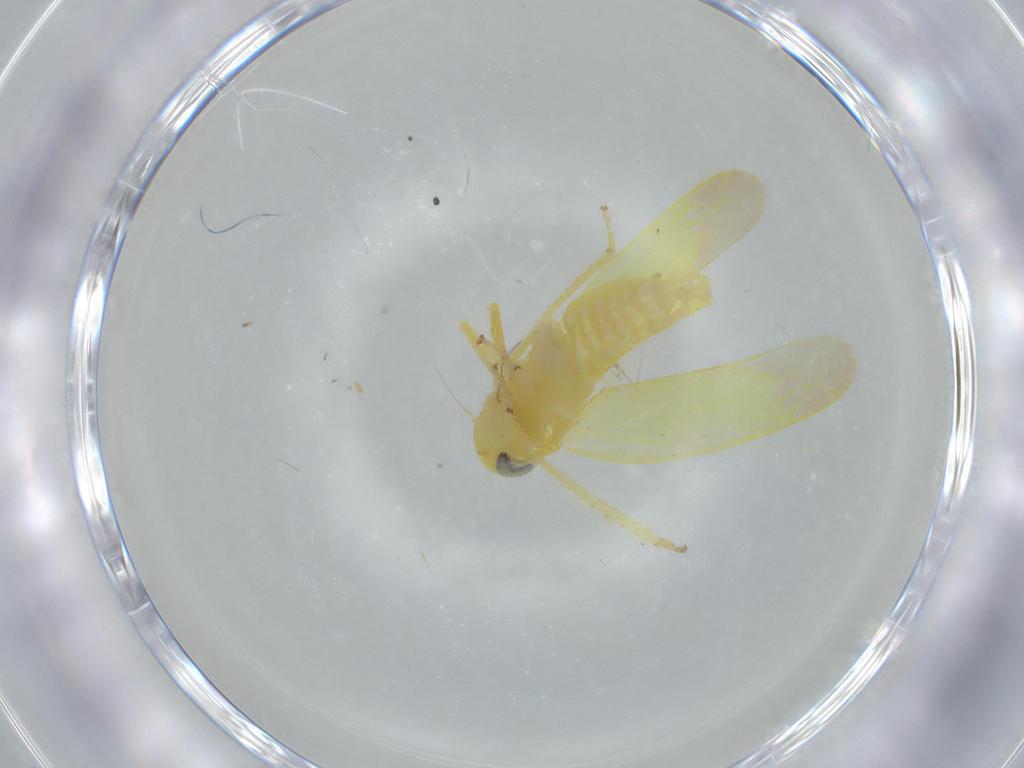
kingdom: Animalia
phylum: Arthropoda
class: Insecta
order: Hemiptera
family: Cicadellidae
